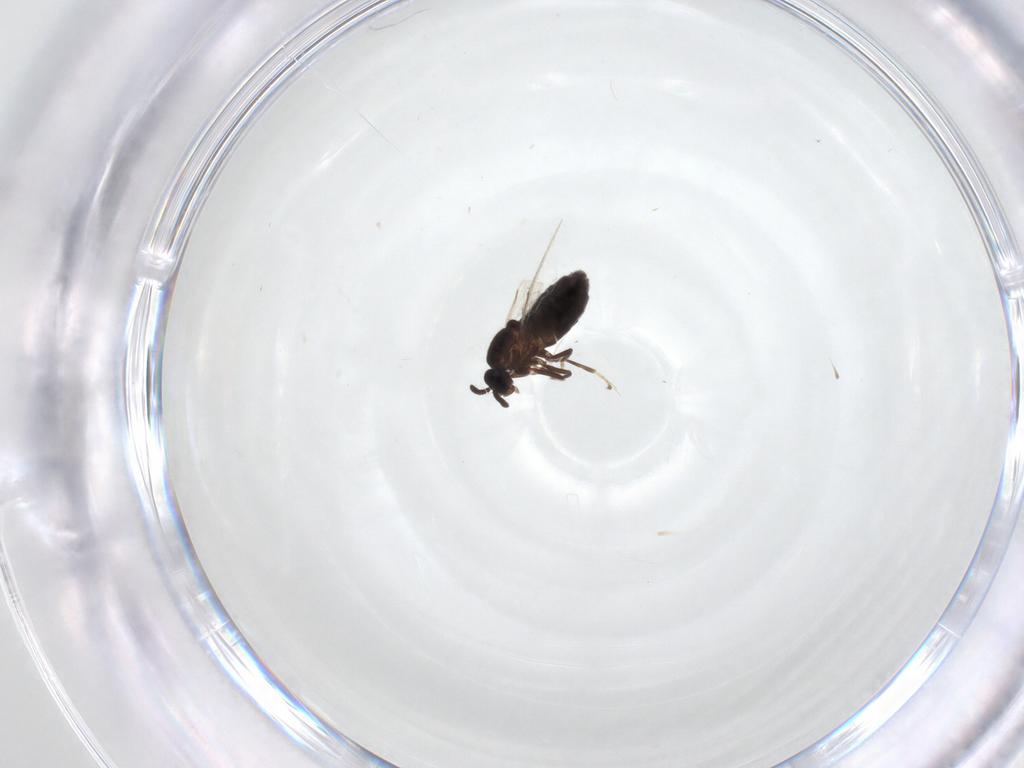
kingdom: Animalia
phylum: Arthropoda
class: Insecta
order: Diptera
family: Scatopsidae
